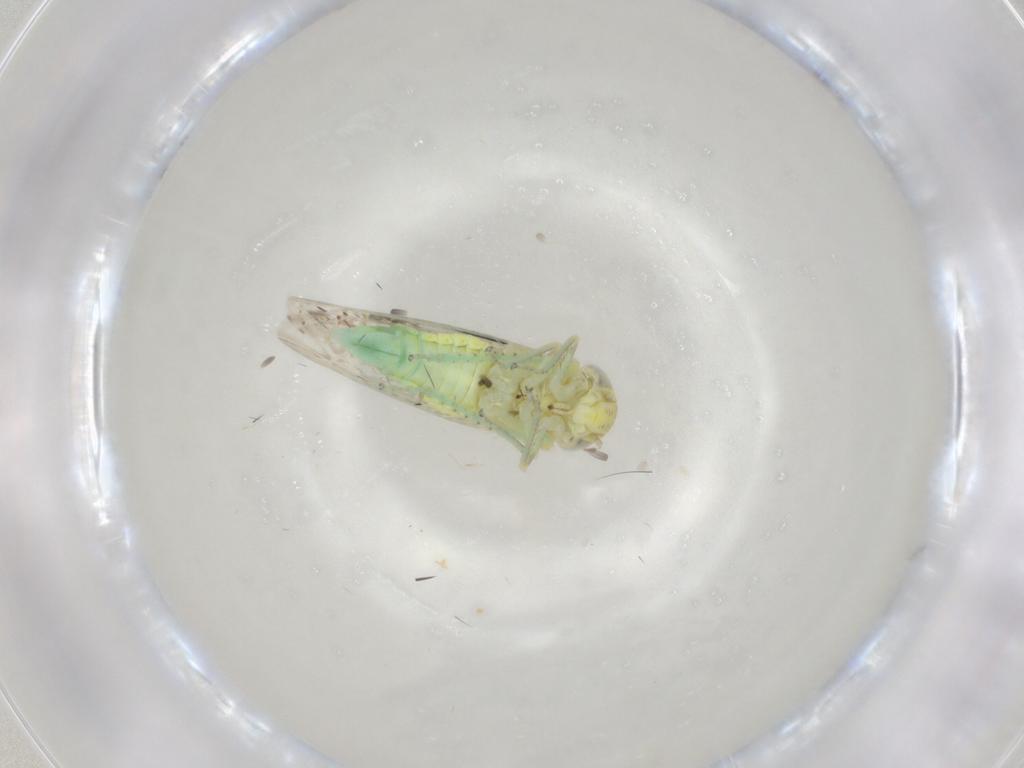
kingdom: Animalia
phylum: Arthropoda
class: Insecta
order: Hemiptera
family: Cicadellidae
